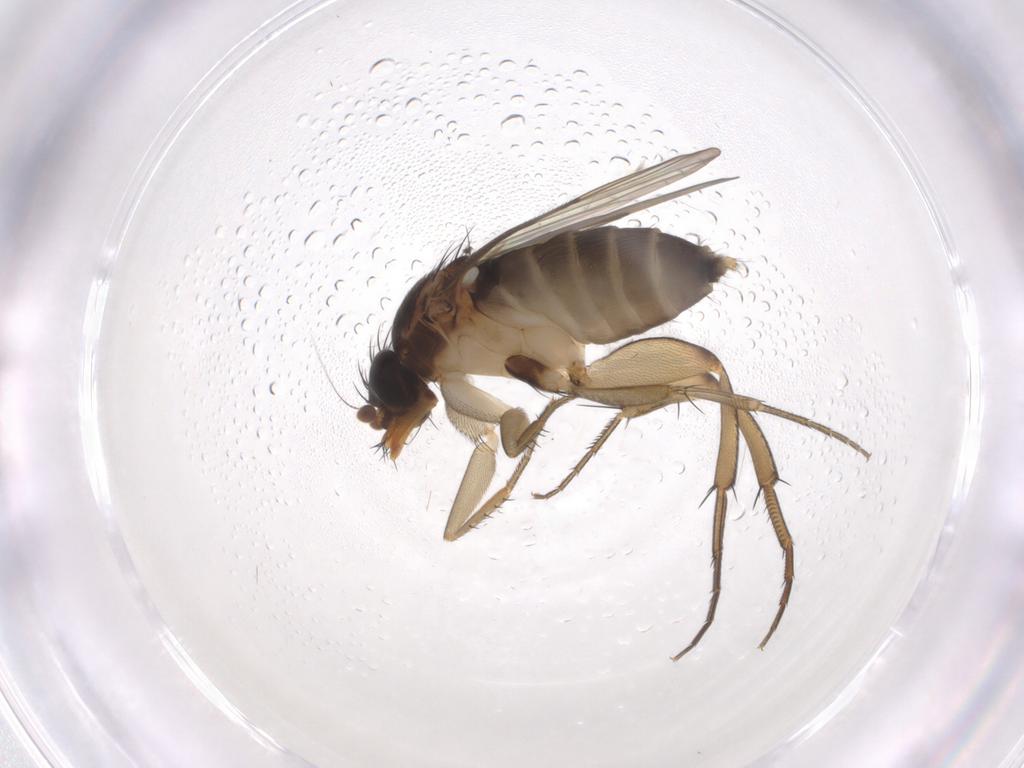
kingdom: Animalia
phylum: Arthropoda
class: Insecta
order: Diptera
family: Phoridae
